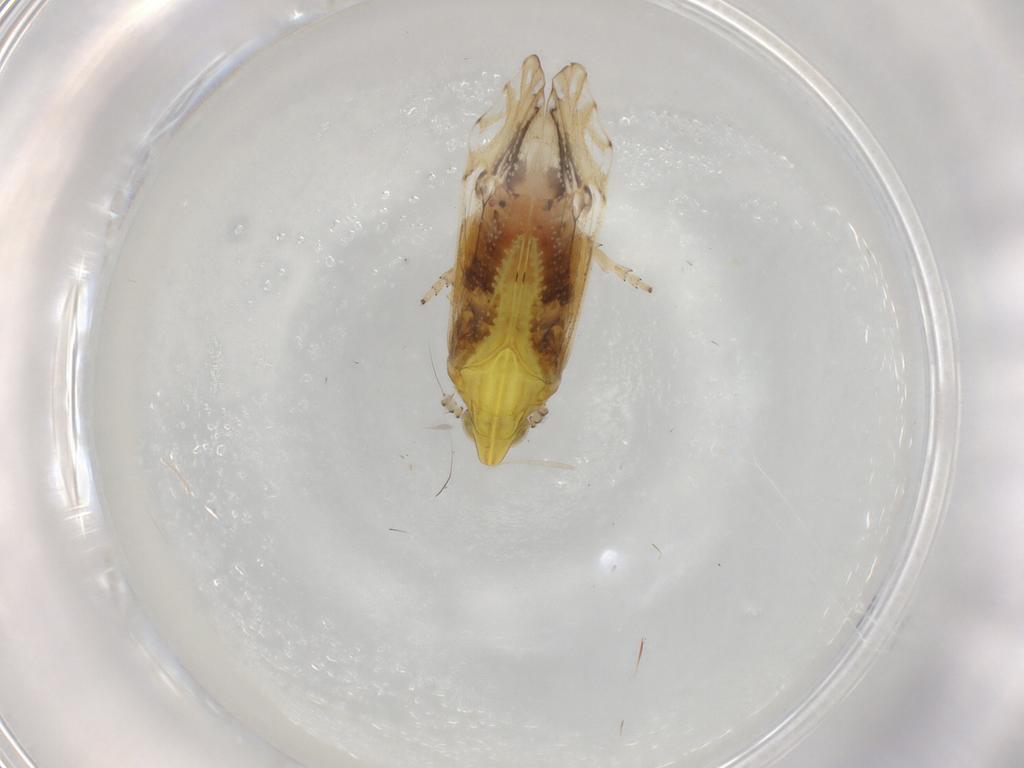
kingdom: Animalia
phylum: Arthropoda
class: Insecta
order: Hemiptera
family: Delphacidae
